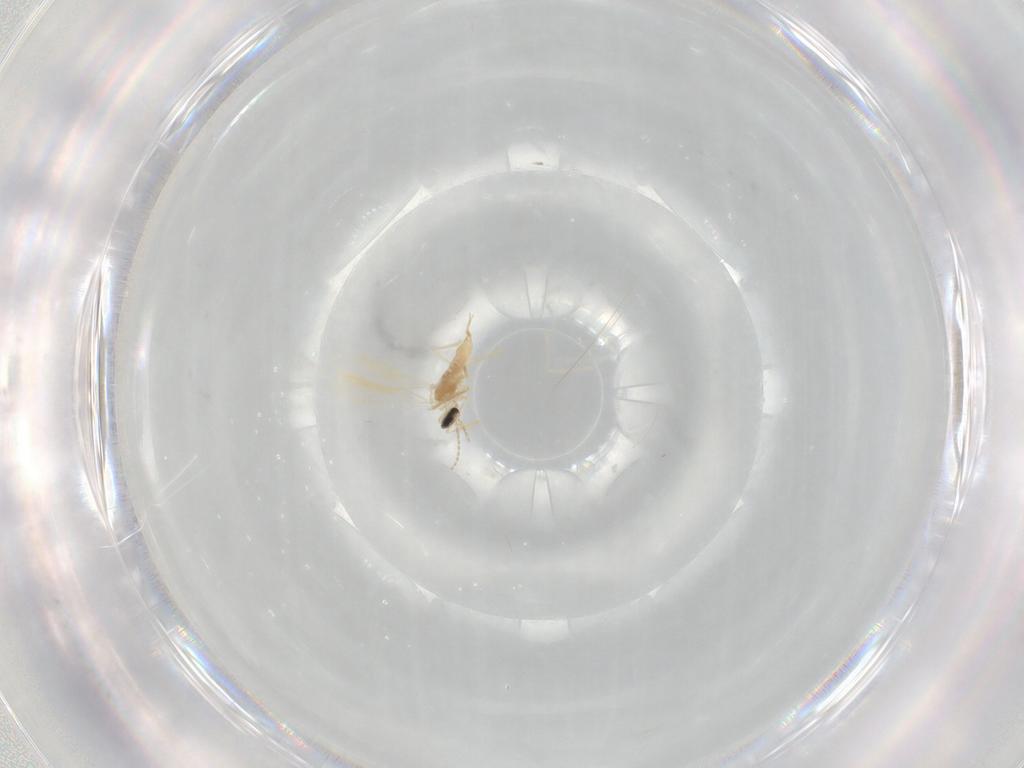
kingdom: Animalia
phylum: Arthropoda
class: Insecta
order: Diptera
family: Cecidomyiidae
